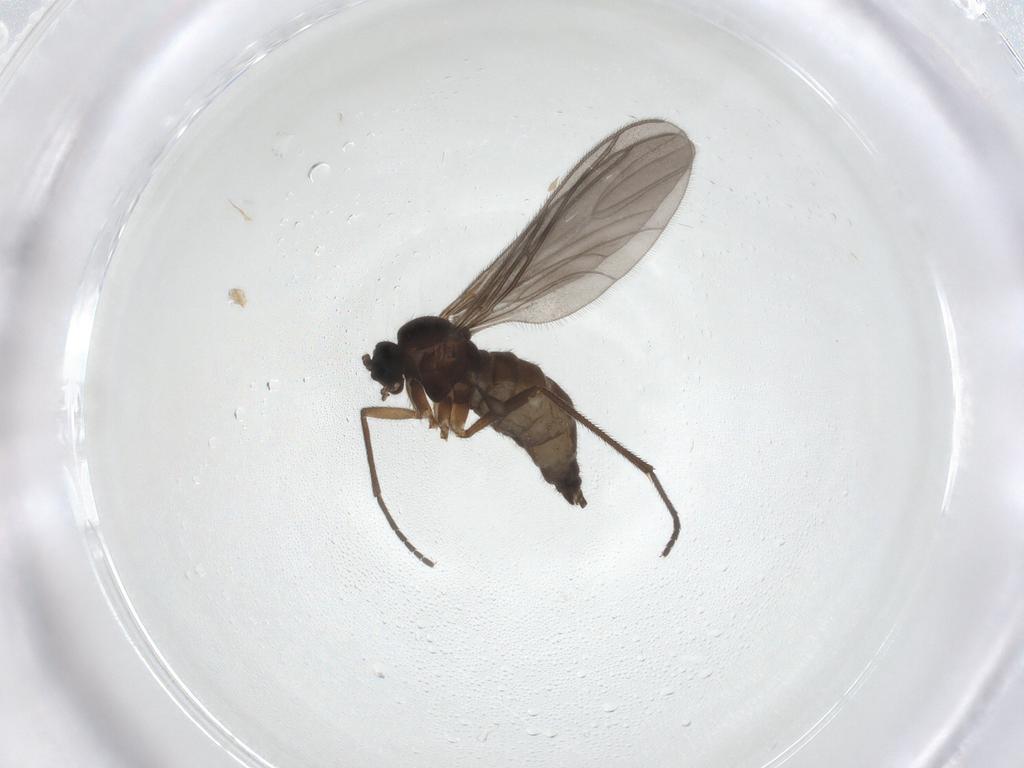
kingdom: Animalia
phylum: Arthropoda
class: Insecta
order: Diptera
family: Sciaridae
